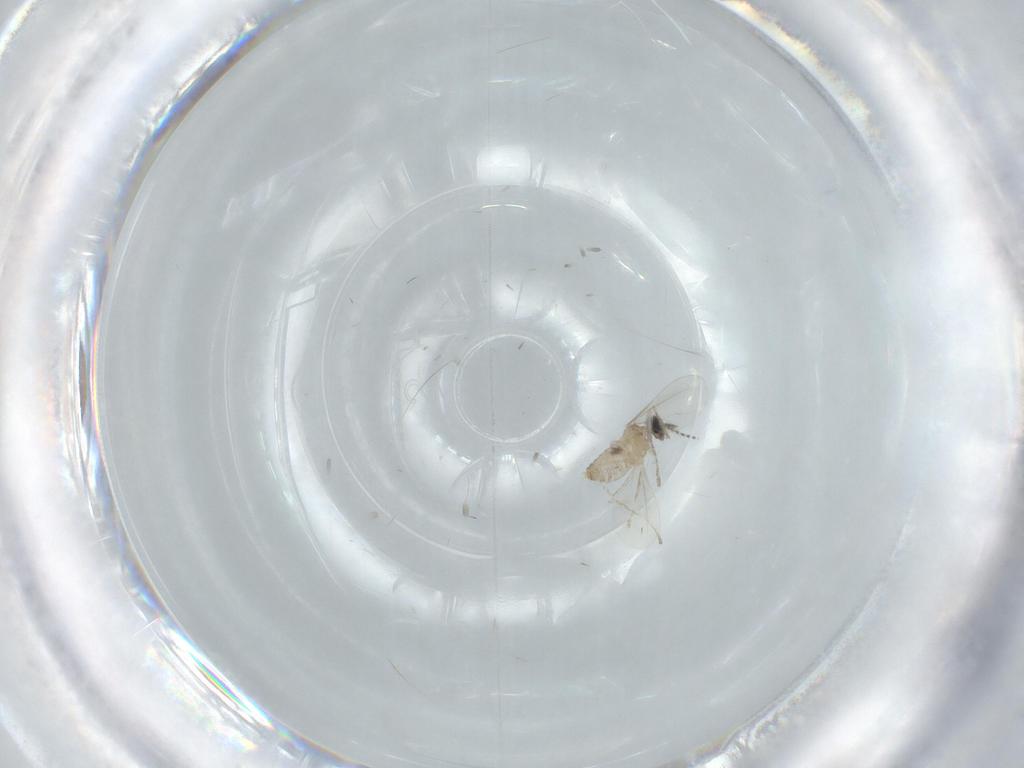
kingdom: Animalia
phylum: Arthropoda
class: Insecta
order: Diptera
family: Cecidomyiidae
